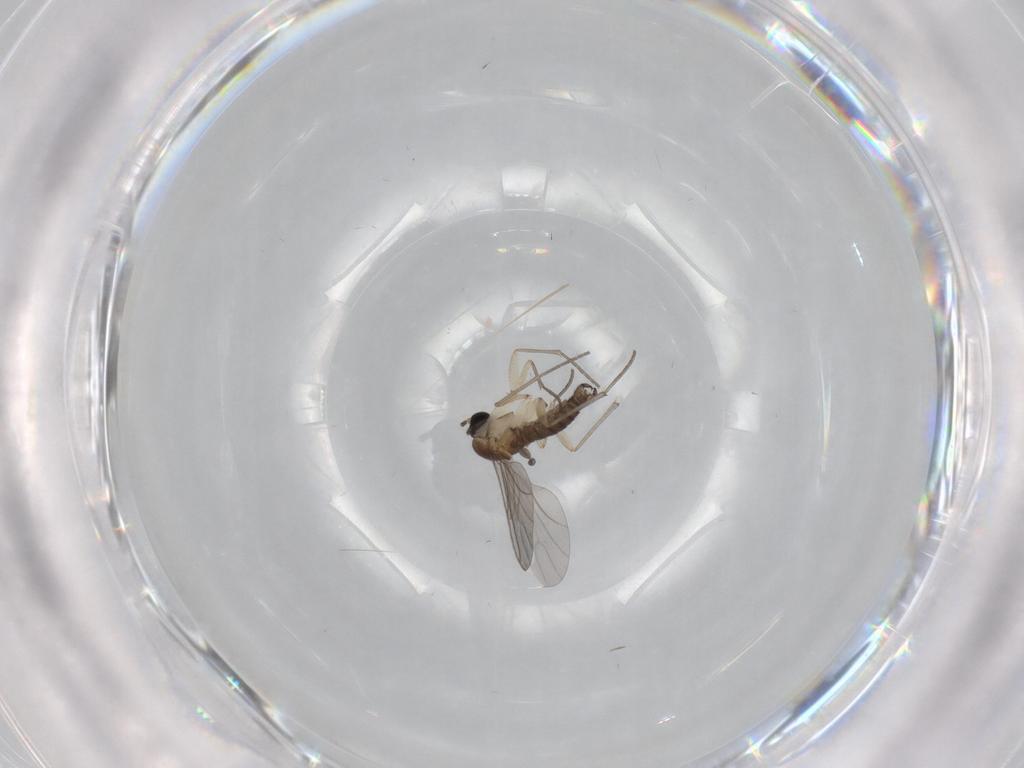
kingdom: Animalia
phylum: Arthropoda
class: Insecta
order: Diptera
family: Sciaridae
